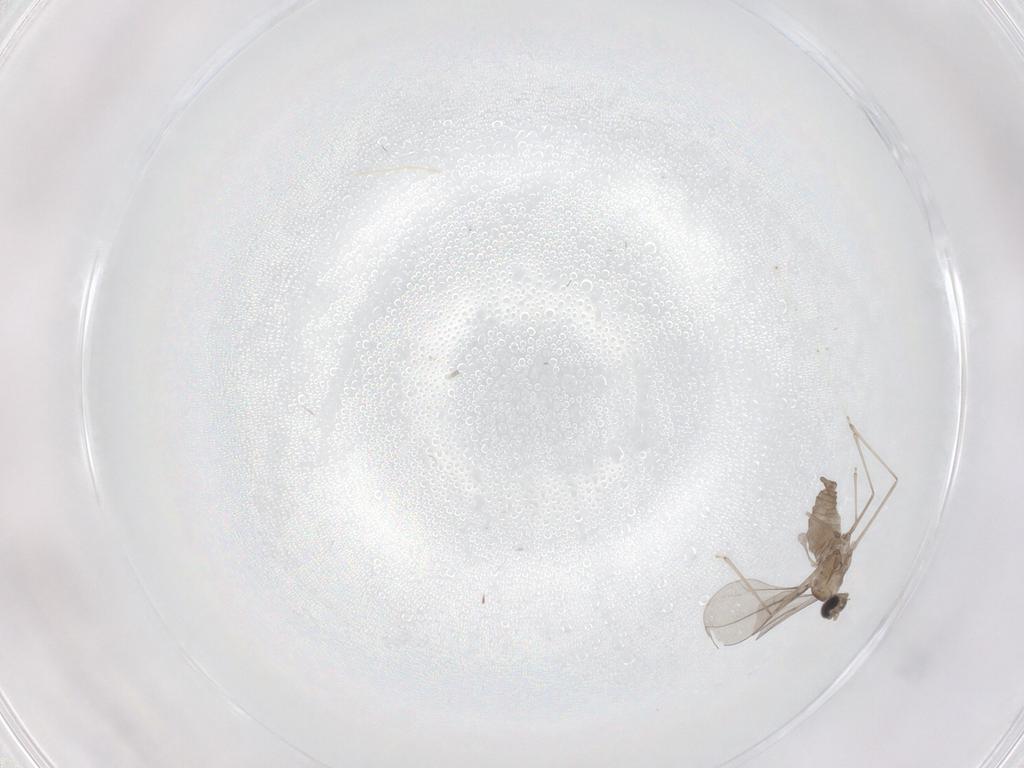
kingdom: Animalia
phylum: Arthropoda
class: Insecta
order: Diptera
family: Cecidomyiidae
